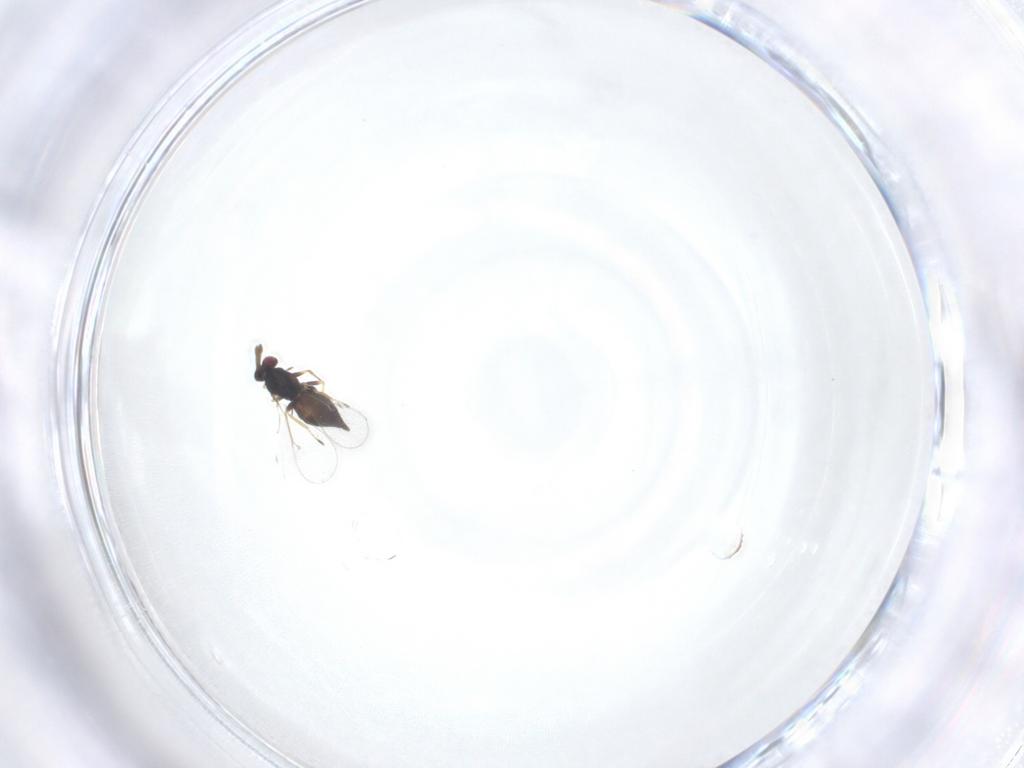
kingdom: Animalia
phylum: Arthropoda
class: Insecta
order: Hymenoptera
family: Eulophidae
